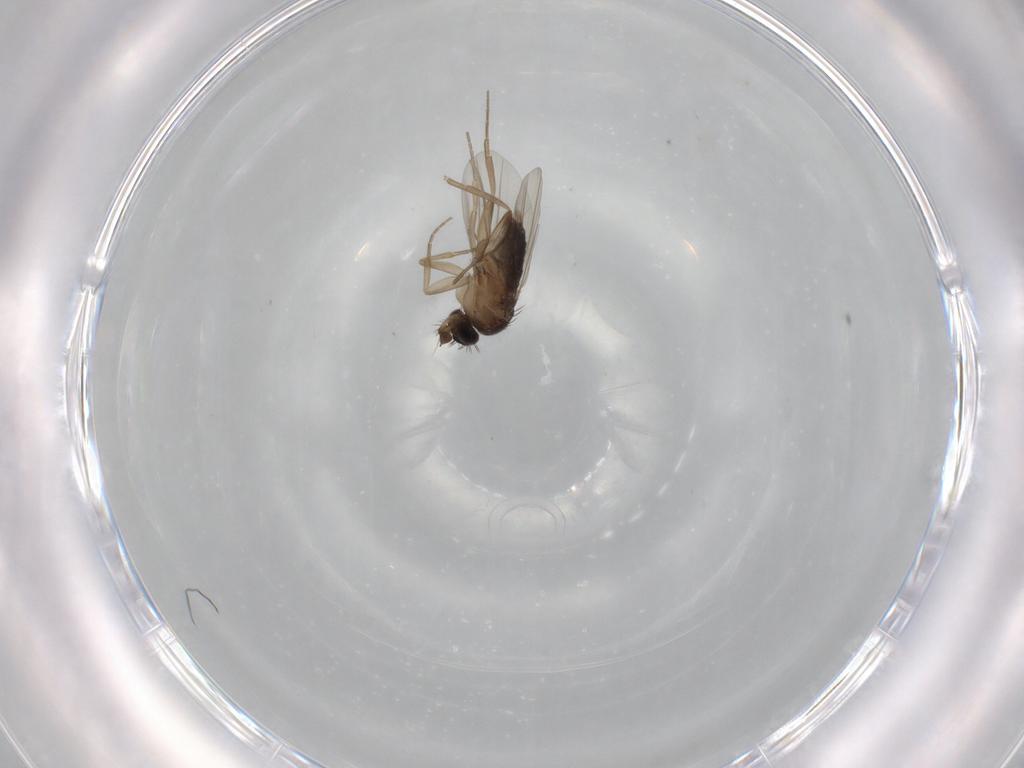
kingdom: Animalia
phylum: Arthropoda
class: Insecta
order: Diptera
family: Phoridae
